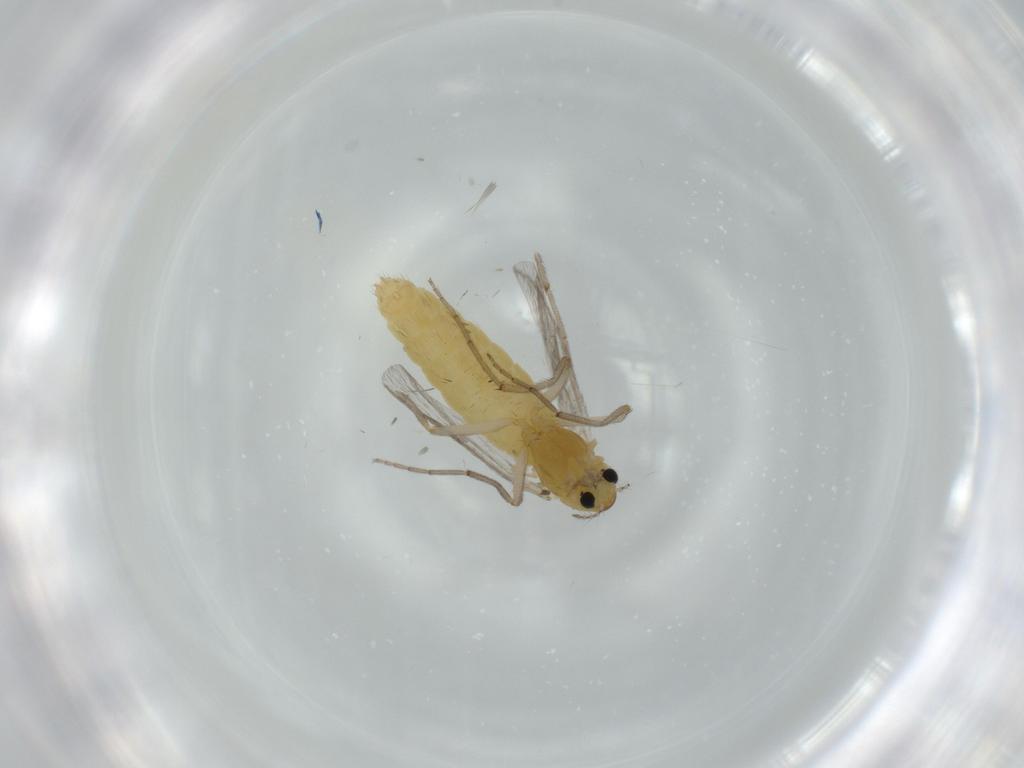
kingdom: Animalia
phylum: Arthropoda
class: Insecta
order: Diptera
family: Chironomidae
